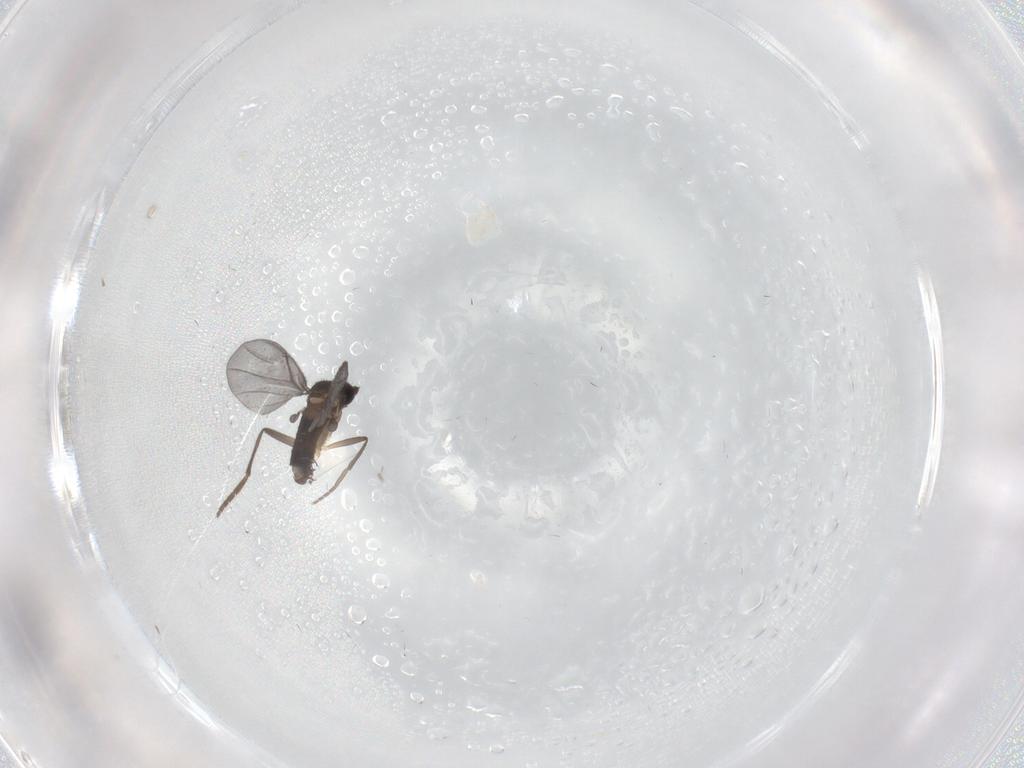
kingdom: Animalia
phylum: Arthropoda
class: Insecta
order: Diptera
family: Phoridae
